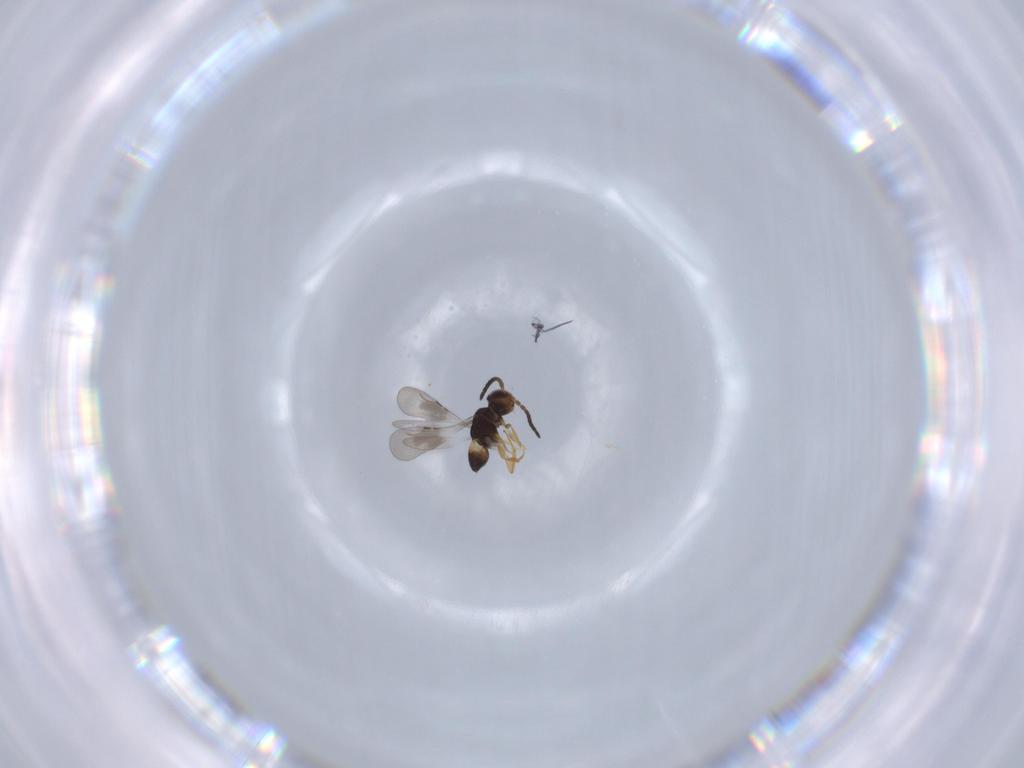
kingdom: Animalia
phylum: Arthropoda
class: Insecta
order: Hymenoptera
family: Ceraphronidae
